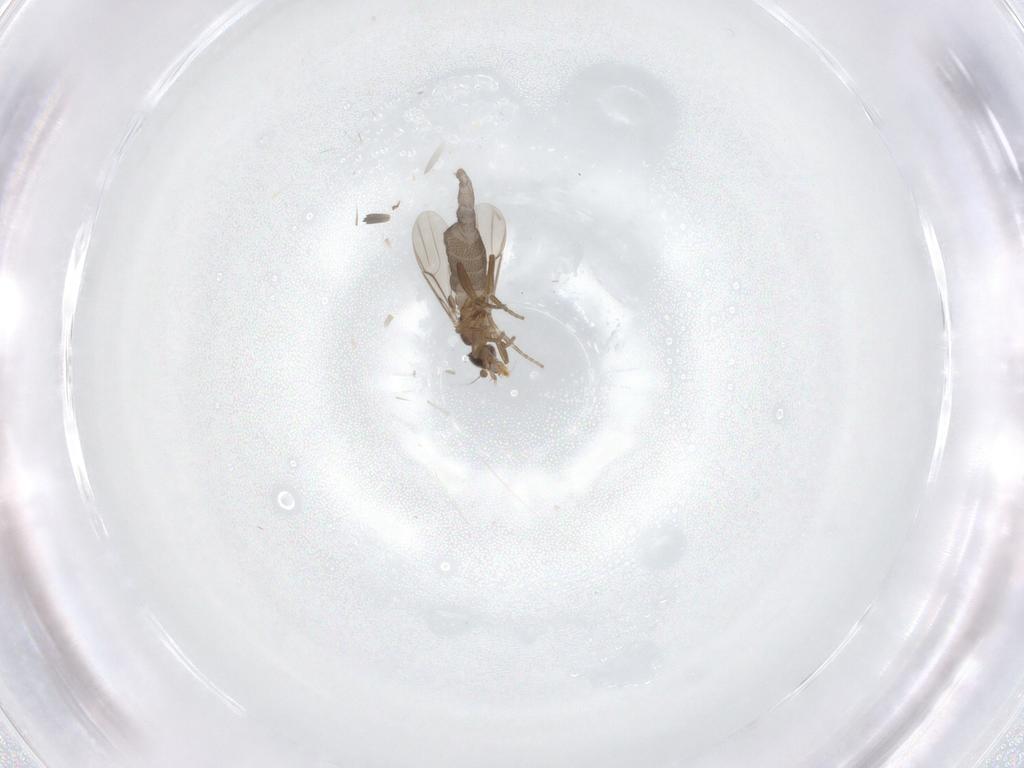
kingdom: Animalia
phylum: Arthropoda
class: Insecta
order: Diptera
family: Phoridae
